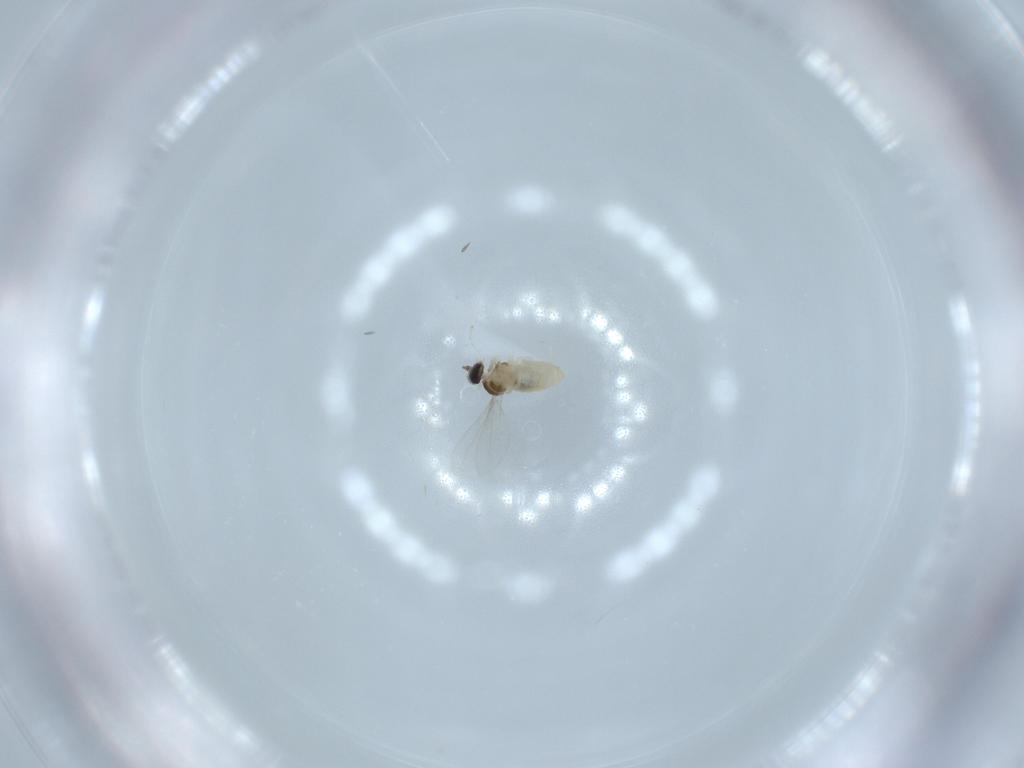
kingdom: Animalia
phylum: Arthropoda
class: Insecta
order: Diptera
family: Cecidomyiidae
